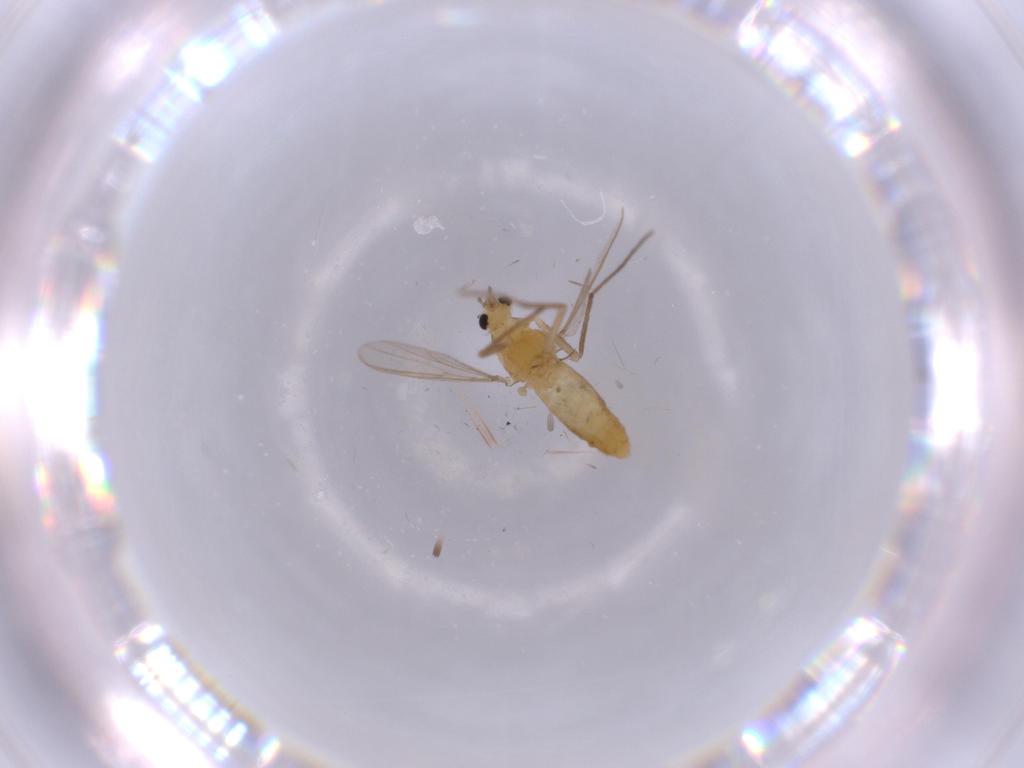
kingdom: Animalia
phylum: Arthropoda
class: Insecta
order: Diptera
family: Chironomidae
